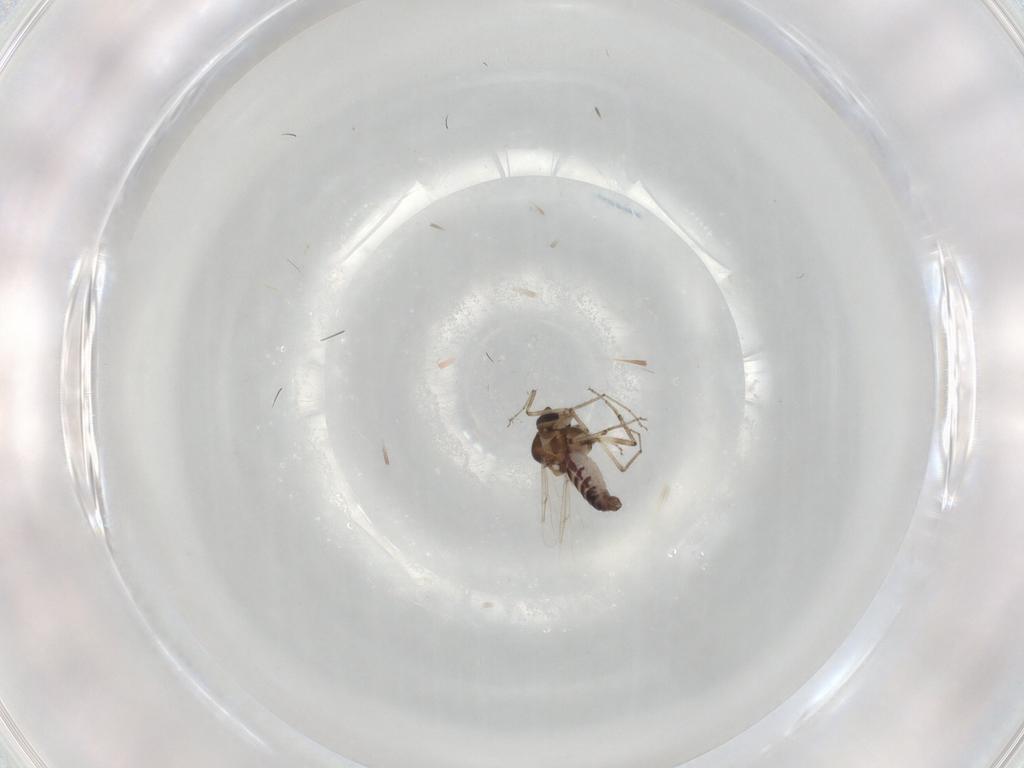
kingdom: Animalia
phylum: Arthropoda
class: Insecta
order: Diptera
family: Ceratopogonidae
